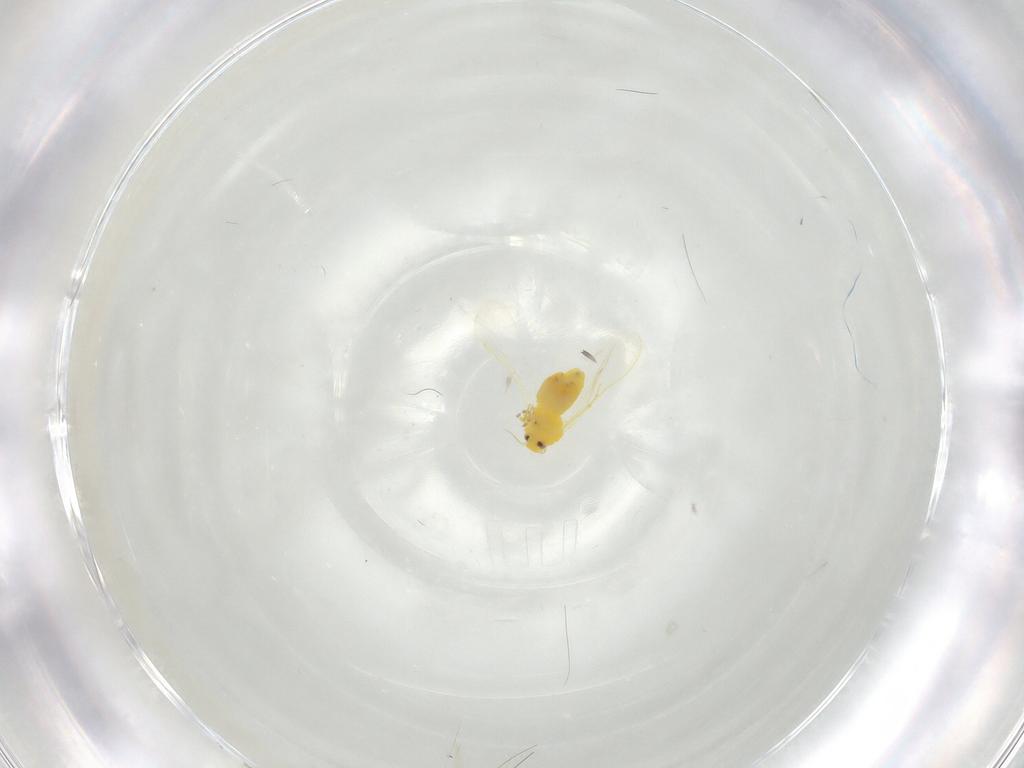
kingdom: Animalia
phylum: Arthropoda
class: Insecta
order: Hemiptera
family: Aleyrodidae
